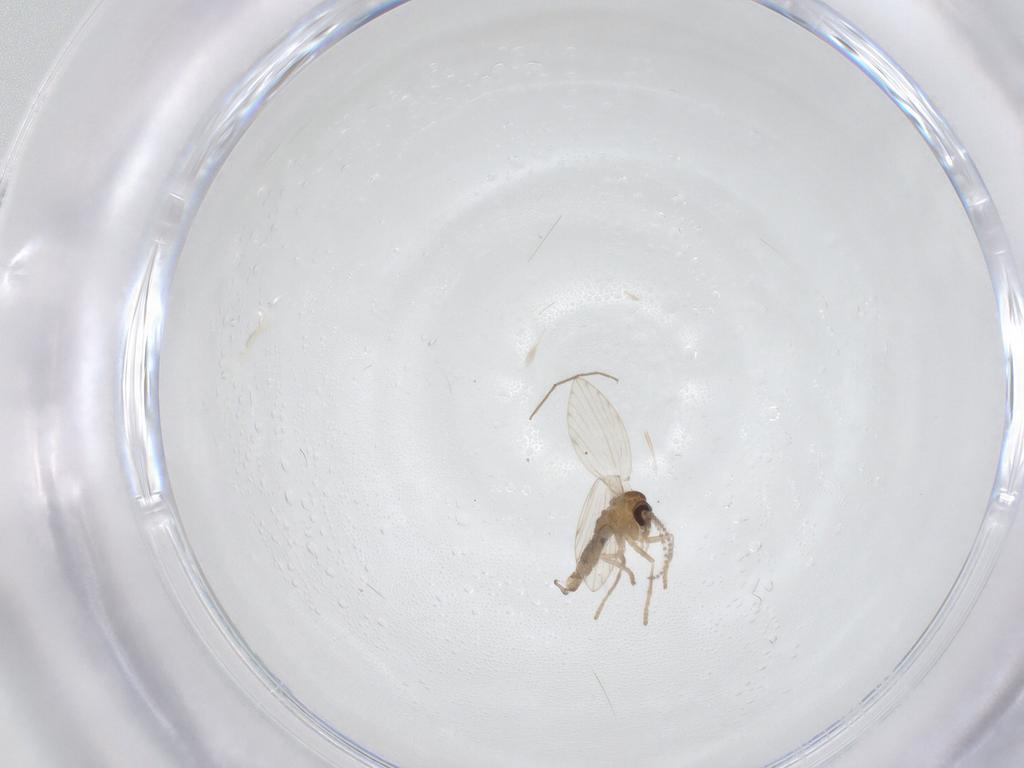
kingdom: Animalia
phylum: Arthropoda
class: Insecta
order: Diptera
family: Chironomidae
